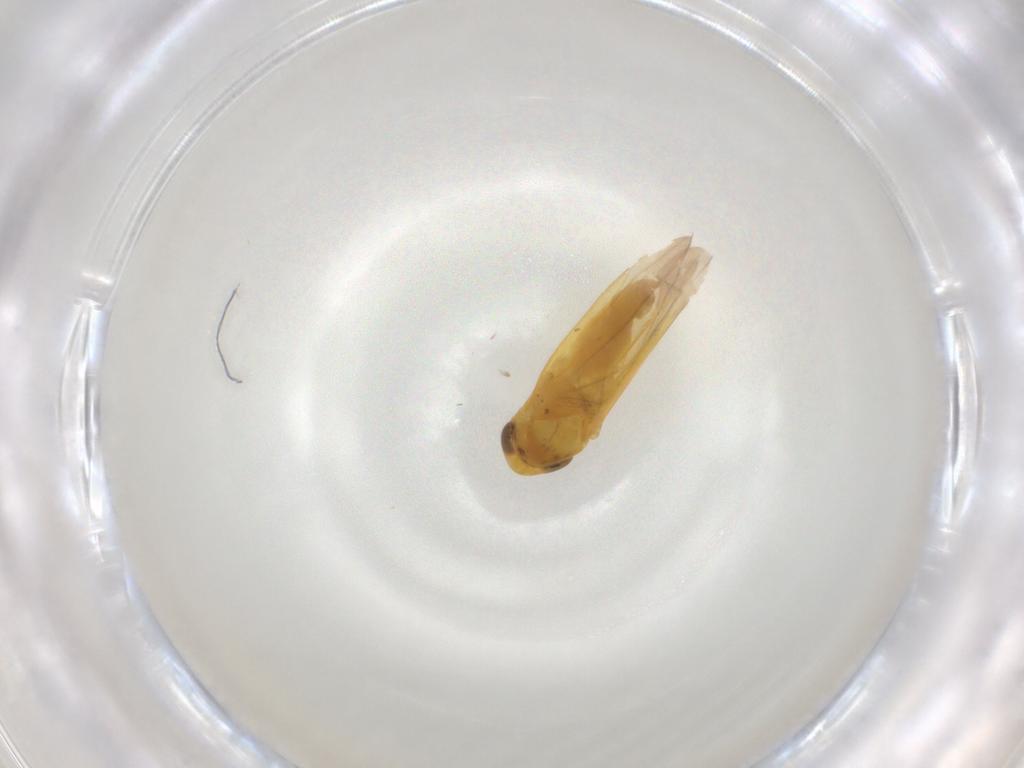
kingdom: Animalia
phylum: Arthropoda
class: Insecta
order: Hemiptera
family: Cicadellidae
